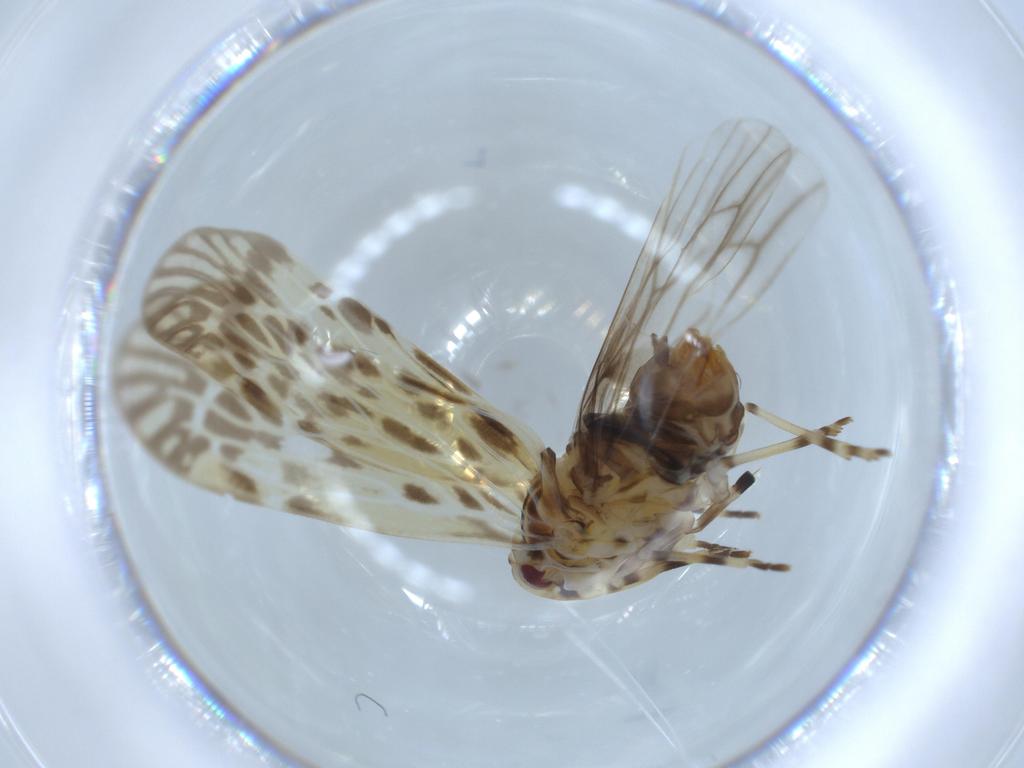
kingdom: Animalia
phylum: Arthropoda
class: Insecta
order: Hemiptera
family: Derbidae
